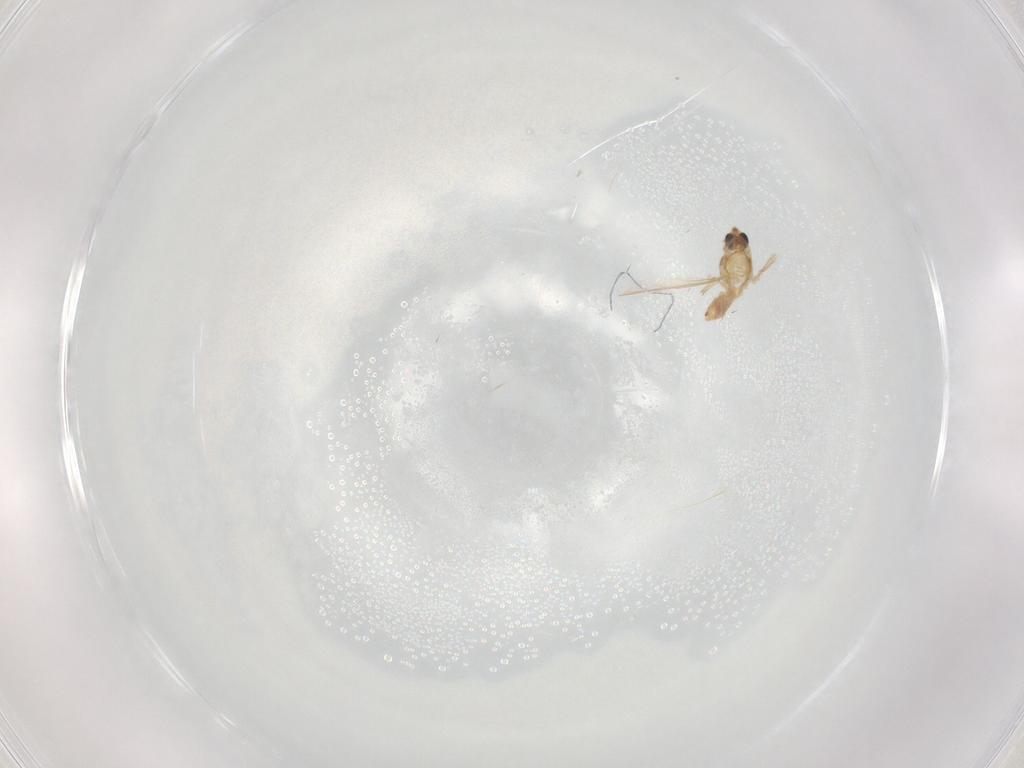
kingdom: Animalia
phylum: Arthropoda
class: Insecta
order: Diptera
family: Chironomidae
